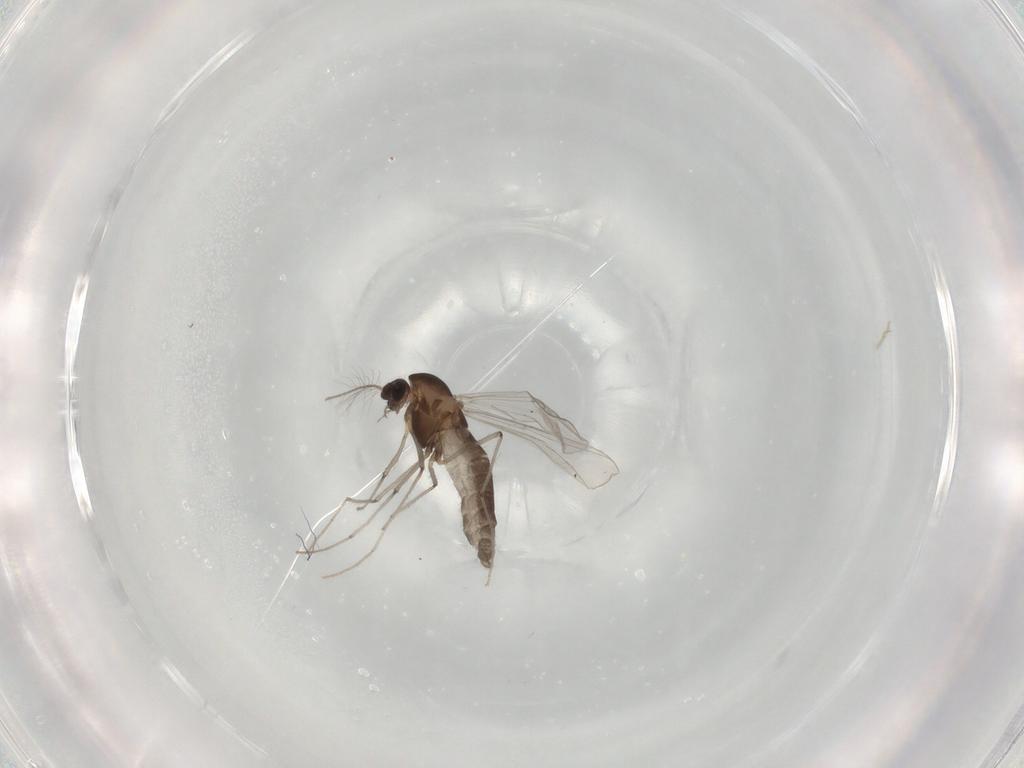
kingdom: Animalia
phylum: Arthropoda
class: Insecta
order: Diptera
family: Chironomidae
